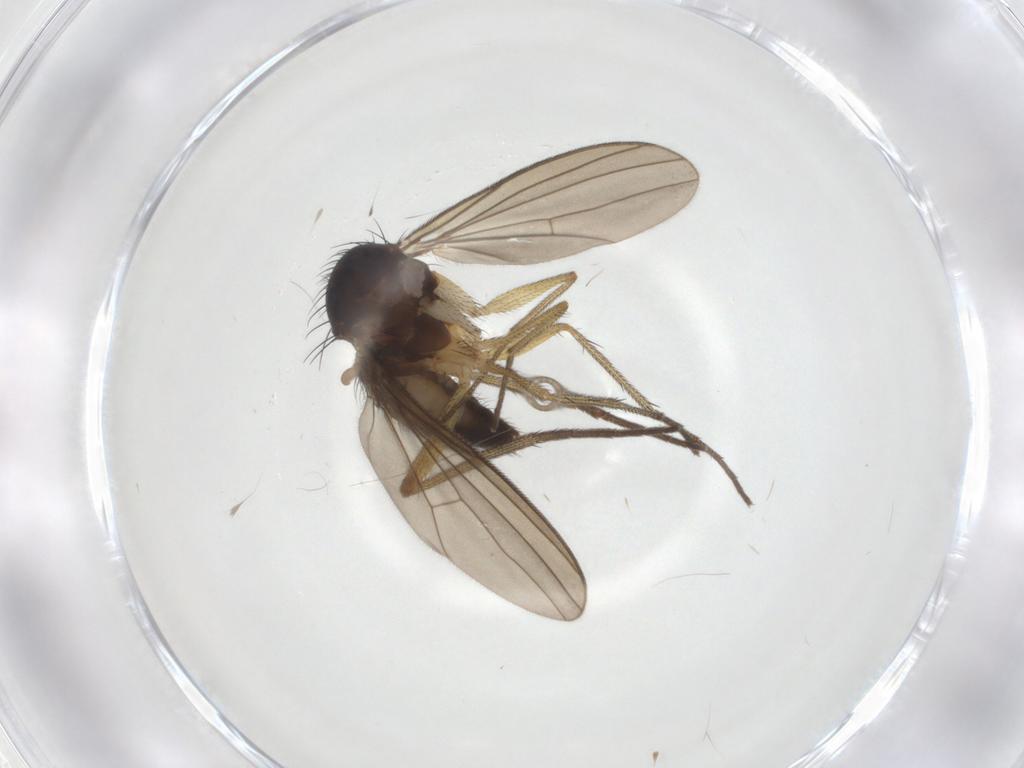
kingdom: Animalia
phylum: Arthropoda
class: Insecta
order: Diptera
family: Dolichopodidae
